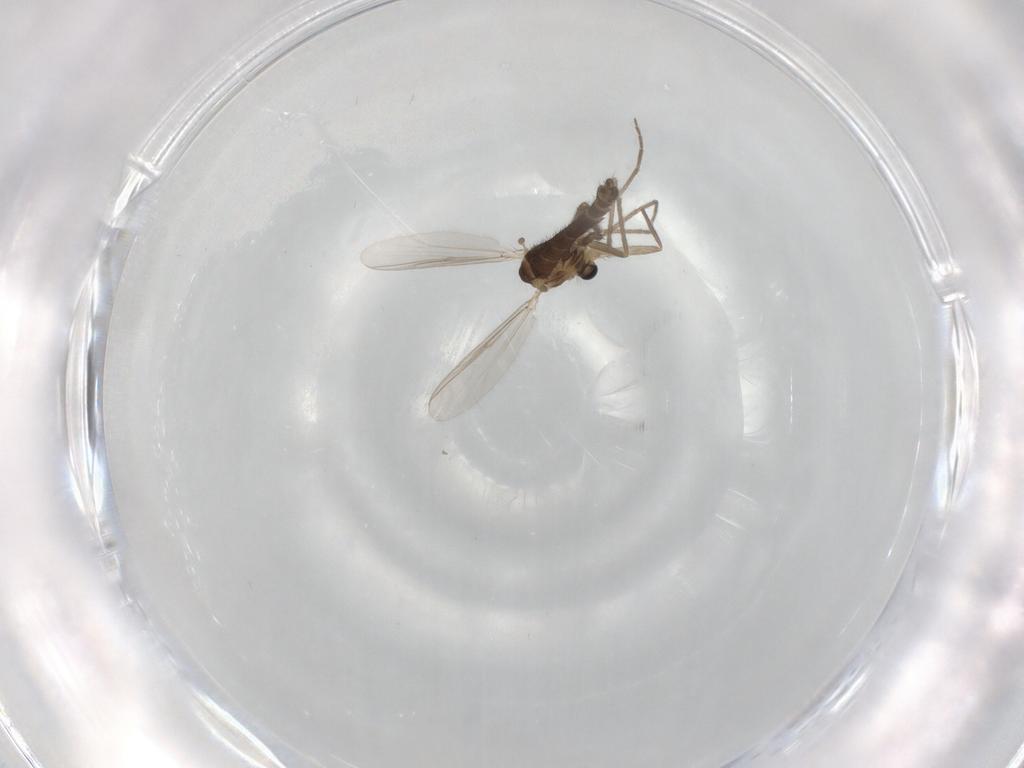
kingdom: Animalia
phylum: Arthropoda
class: Insecta
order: Diptera
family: Chironomidae
